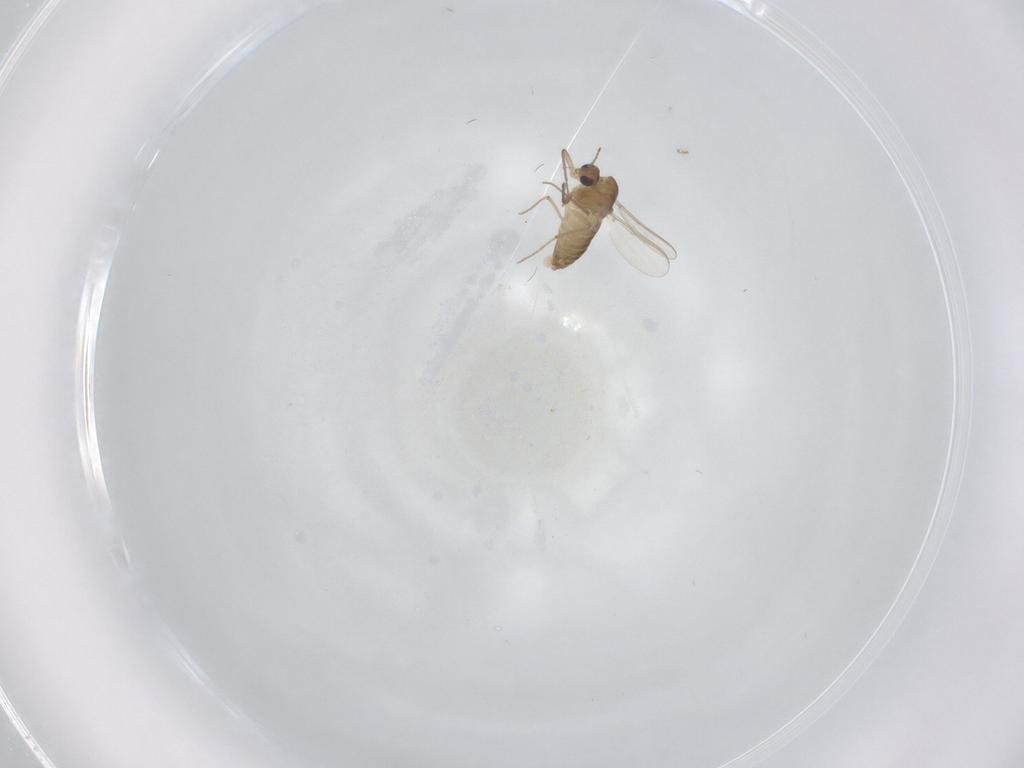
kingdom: Animalia
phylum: Arthropoda
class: Insecta
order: Diptera
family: Chironomidae
